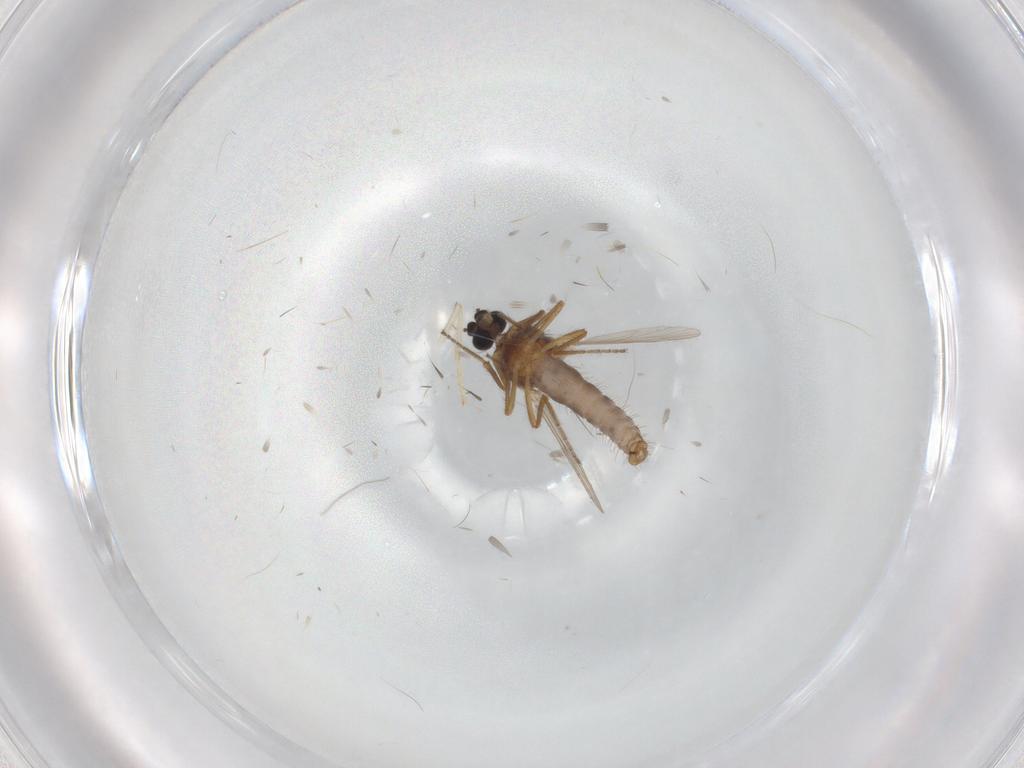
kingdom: Animalia
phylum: Arthropoda
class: Insecta
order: Diptera
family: Ceratopogonidae
